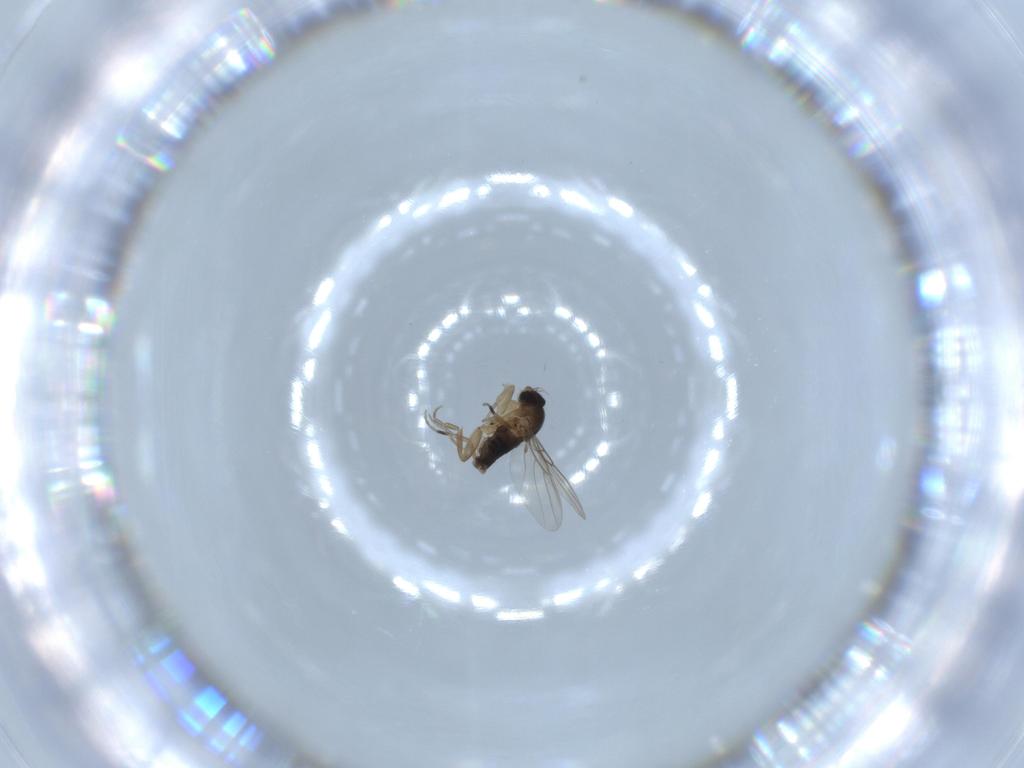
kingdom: Animalia
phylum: Arthropoda
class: Insecta
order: Diptera
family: Phoridae
